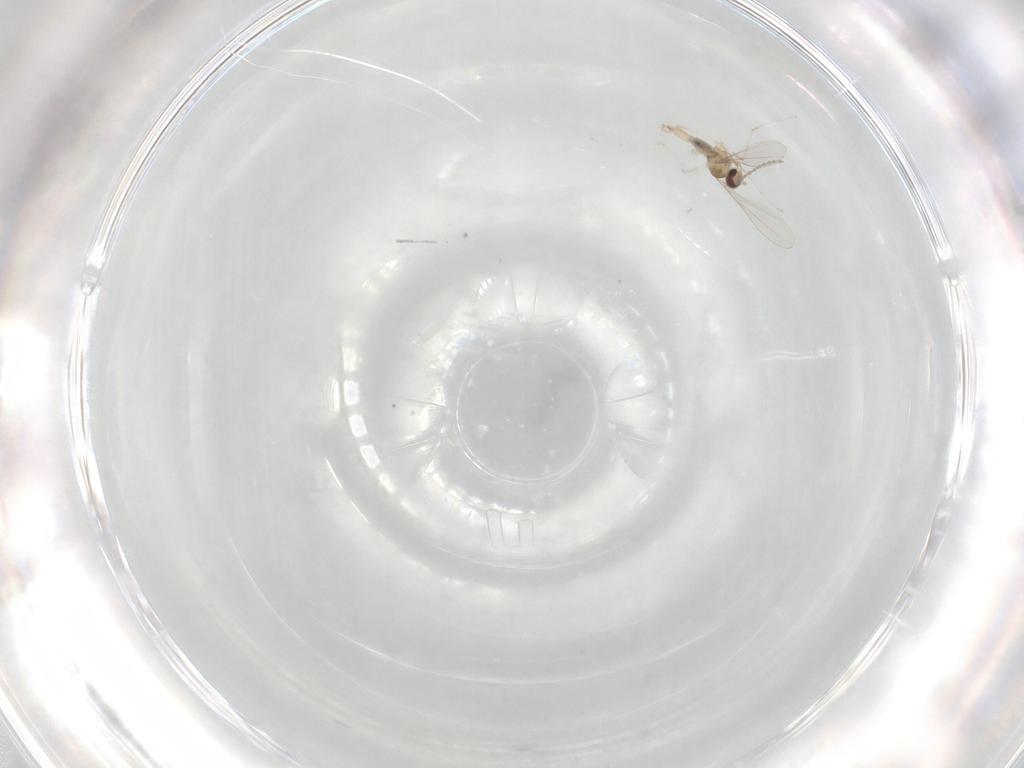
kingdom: Animalia
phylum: Arthropoda
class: Insecta
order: Diptera
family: Cecidomyiidae
